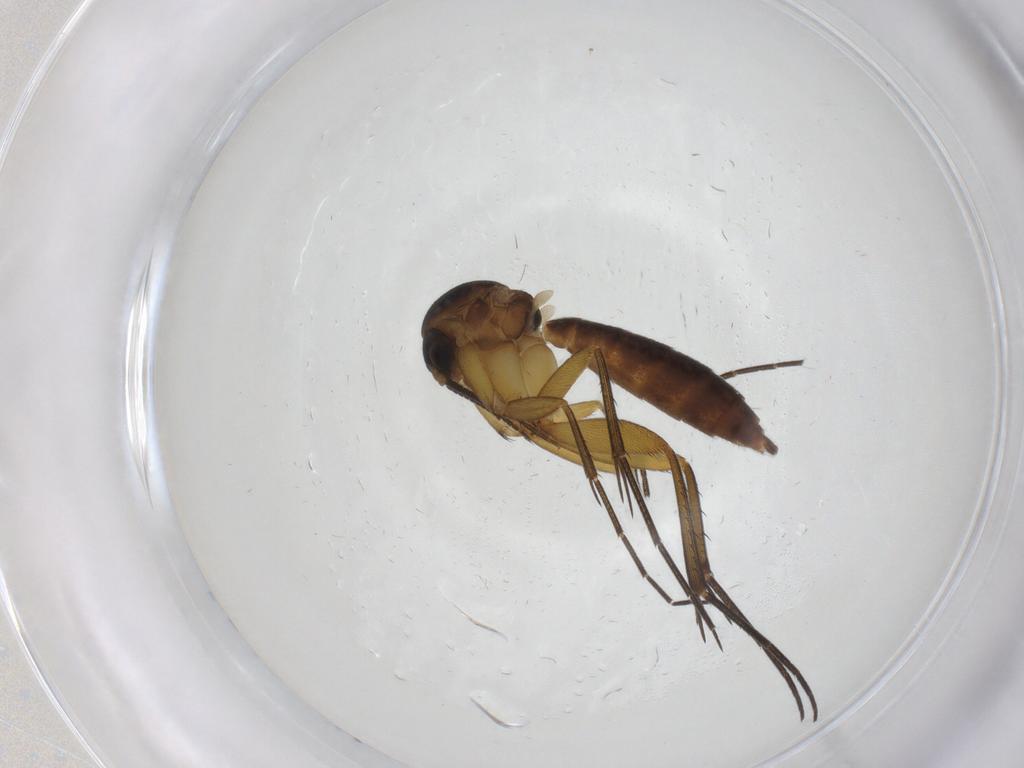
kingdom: Animalia
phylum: Arthropoda
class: Insecta
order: Diptera
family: Mycetophilidae
